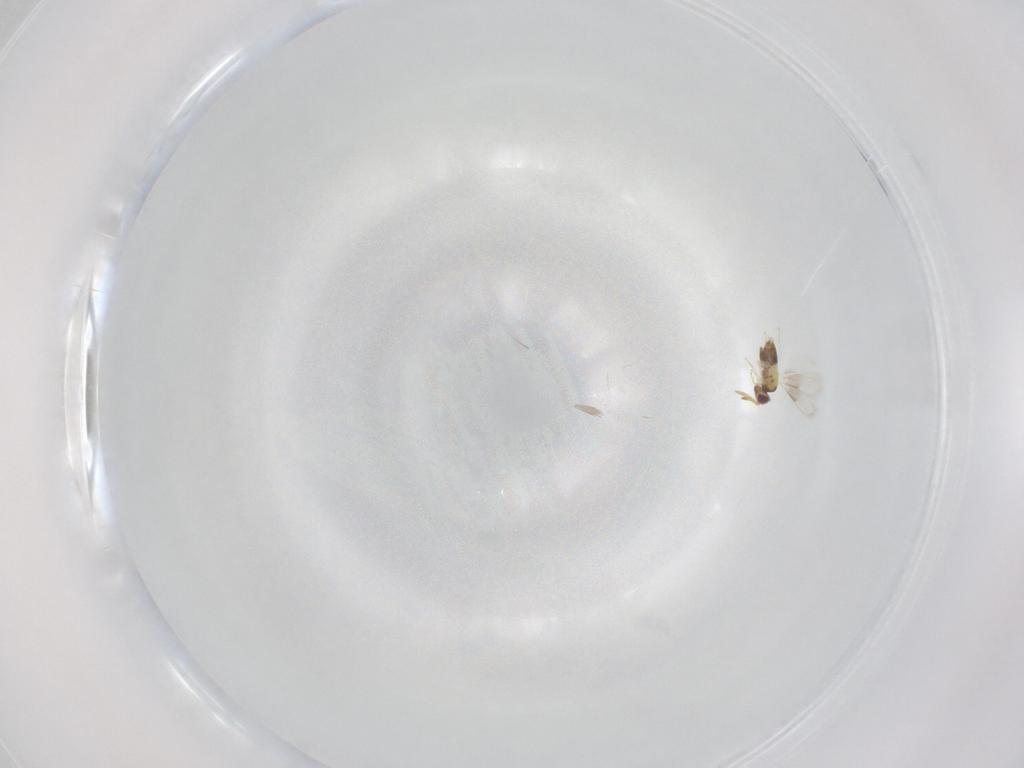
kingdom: Animalia
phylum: Arthropoda
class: Insecta
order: Hymenoptera
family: Aphelinidae
